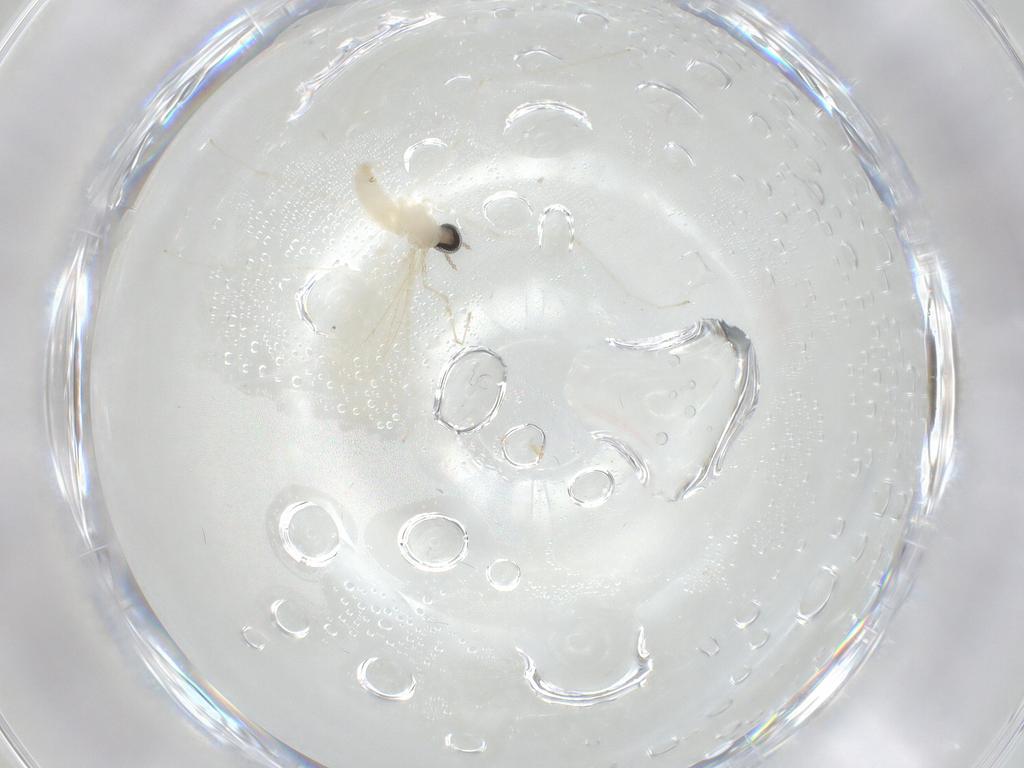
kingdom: Animalia
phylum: Arthropoda
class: Insecta
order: Diptera
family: Cecidomyiidae
